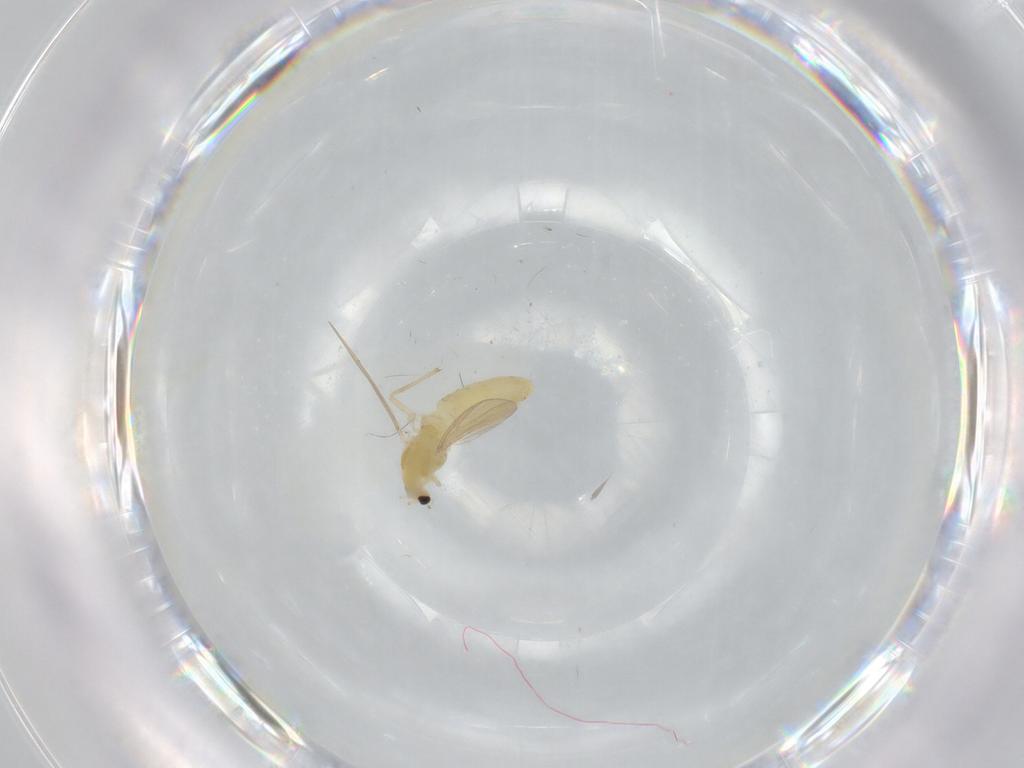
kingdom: Animalia
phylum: Arthropoda
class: Insecta
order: Diptera
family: Chironomidae
